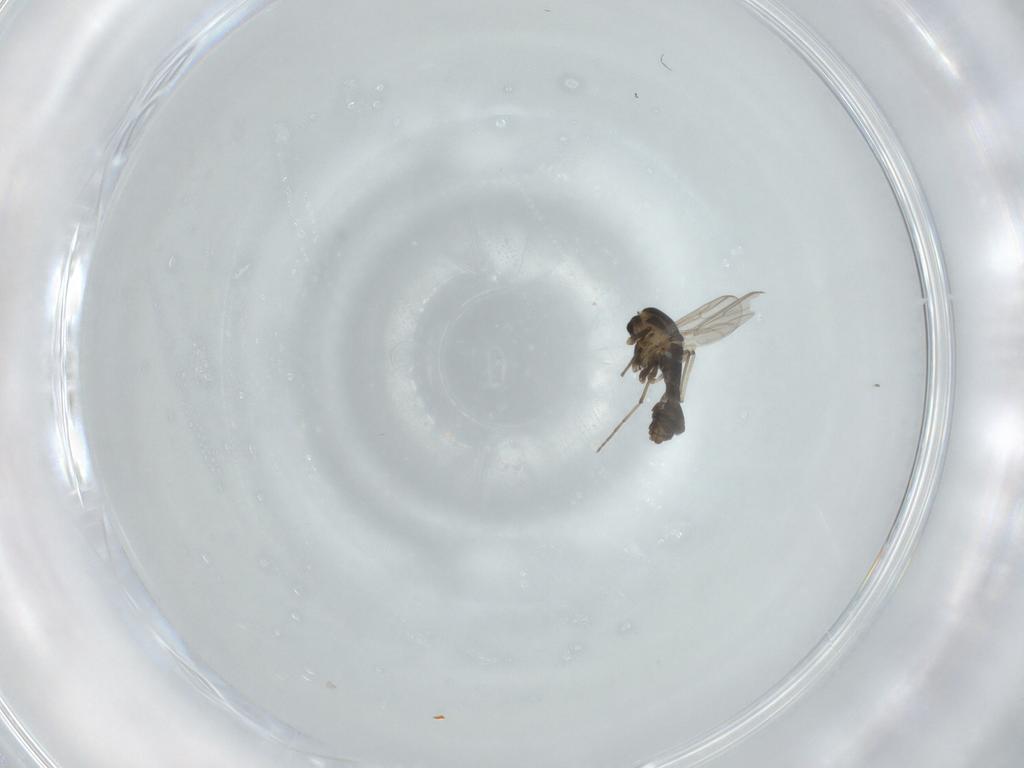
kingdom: Animalia
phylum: Arthropoda
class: Insecta
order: Diptera
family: Chironomidae
